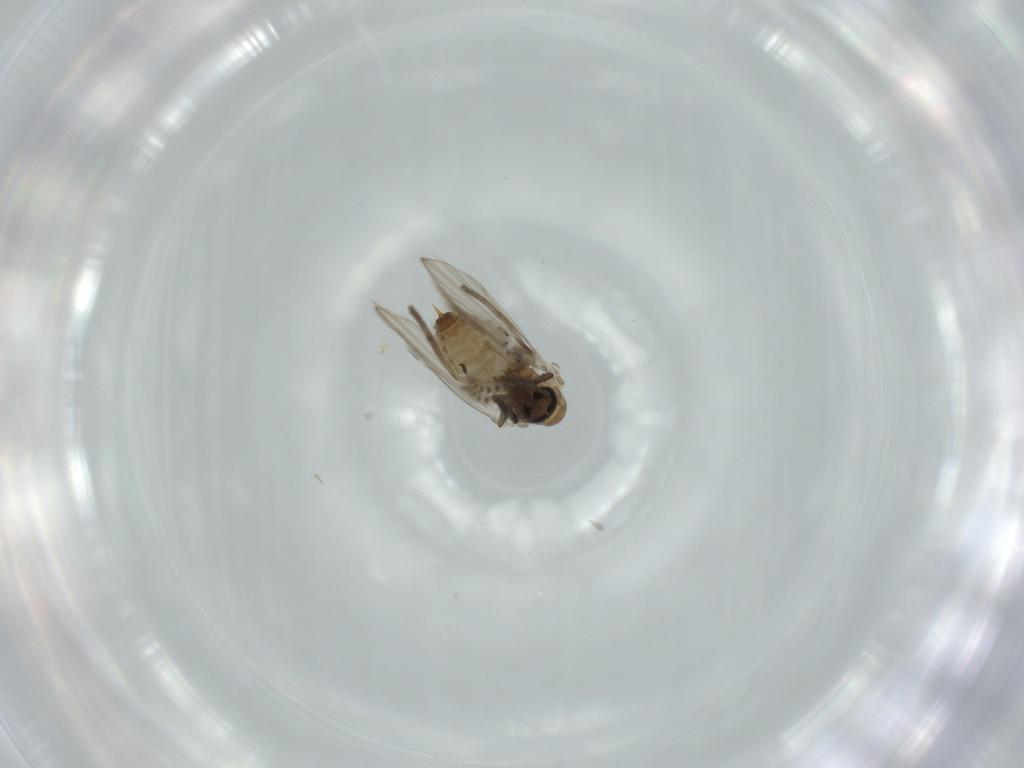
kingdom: Animalia
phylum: Arthropoda
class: Insecta
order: Diptera
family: Psychodidae
